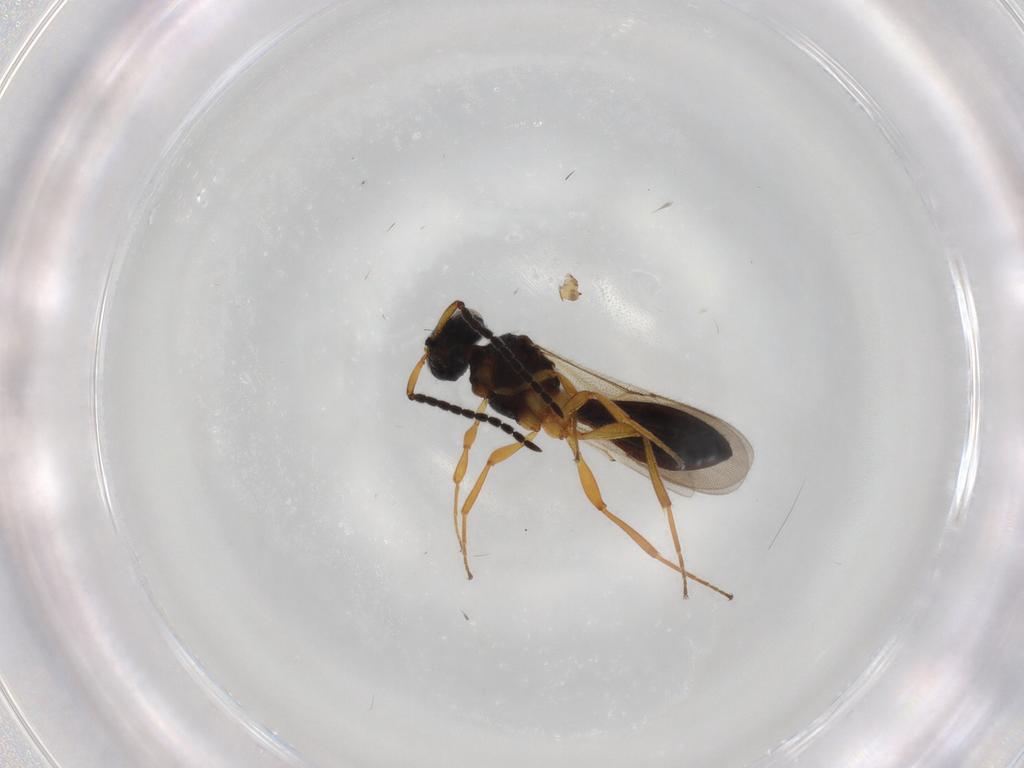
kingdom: Animalia
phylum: Arthropoda
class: Insecta
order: Hymenoptera
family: Scelionidae
